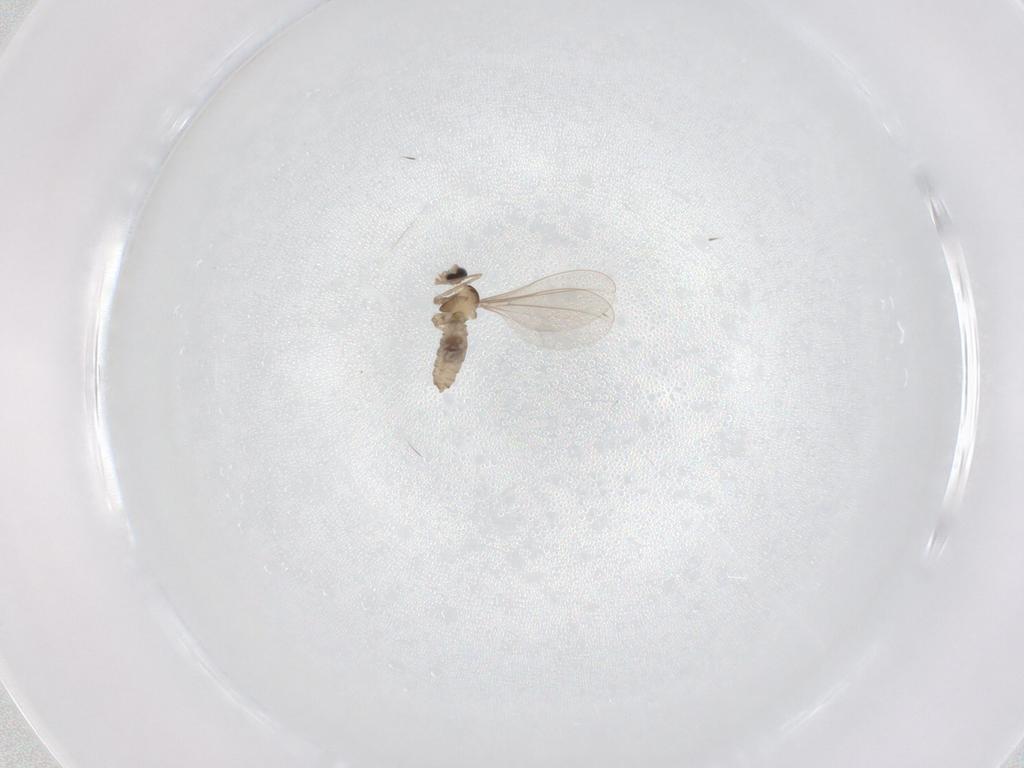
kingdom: Animalia
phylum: Arthropoda
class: Insecta
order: Diptera
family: Cecidomyiidae
